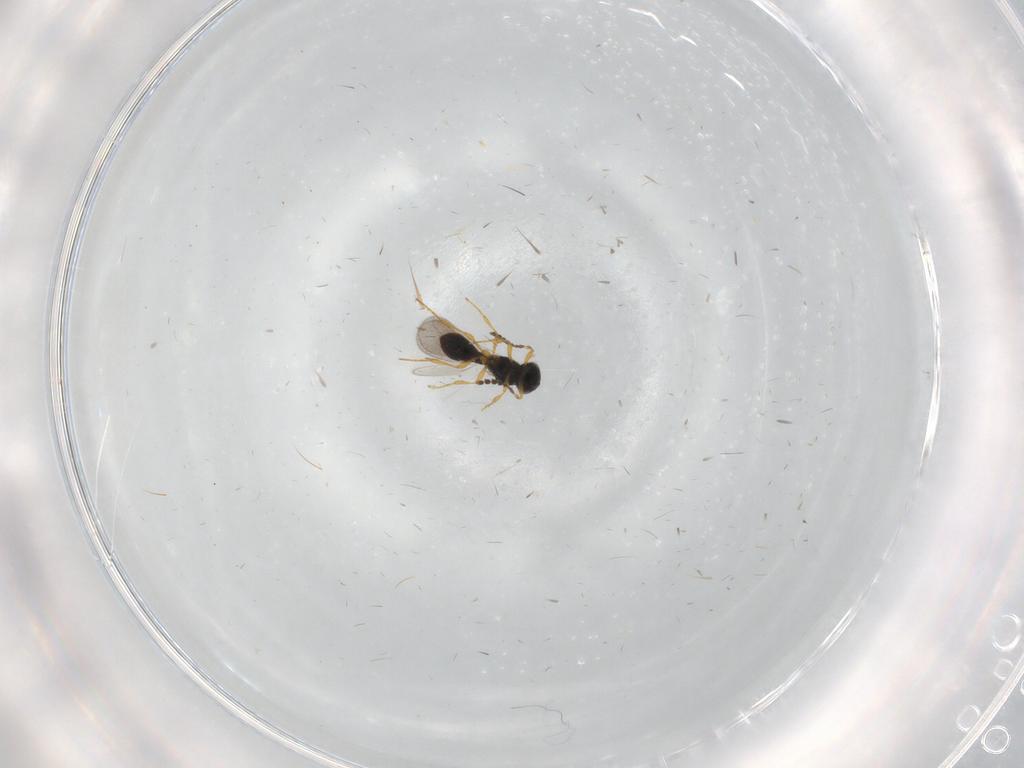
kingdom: Animalia
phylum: Arthropoda
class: Insecta
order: Hymenoptera
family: Platygastridae
